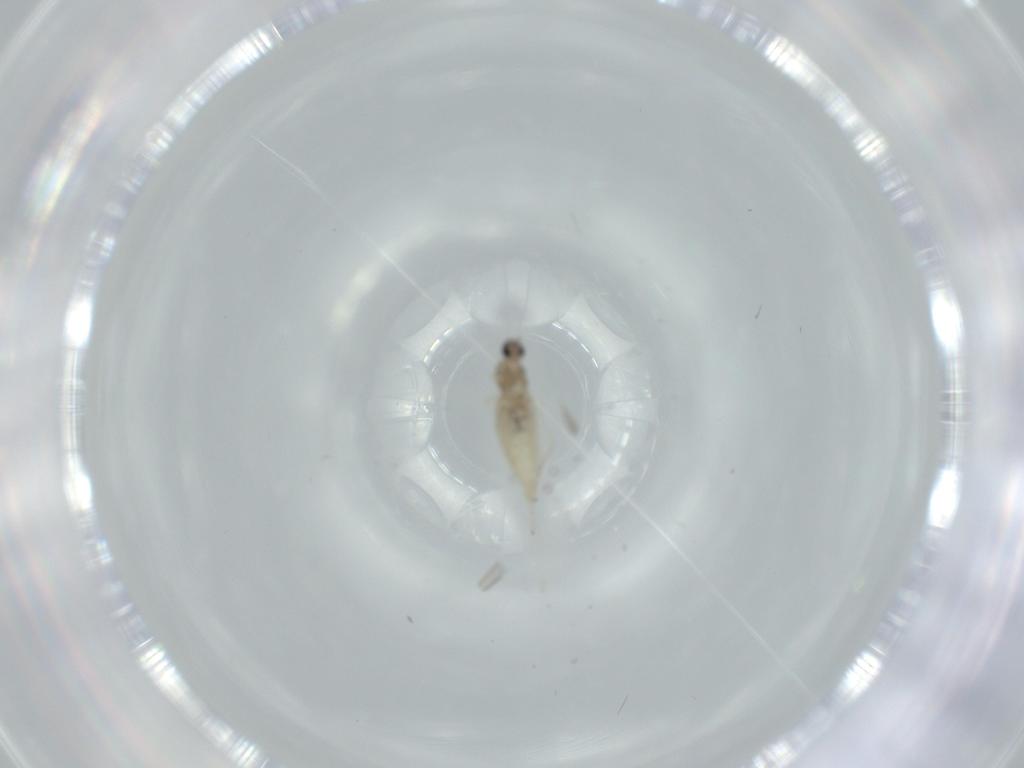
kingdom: Animalia
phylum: Arthropoda
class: Insecta
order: Diptera
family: Cecidomyiidae
